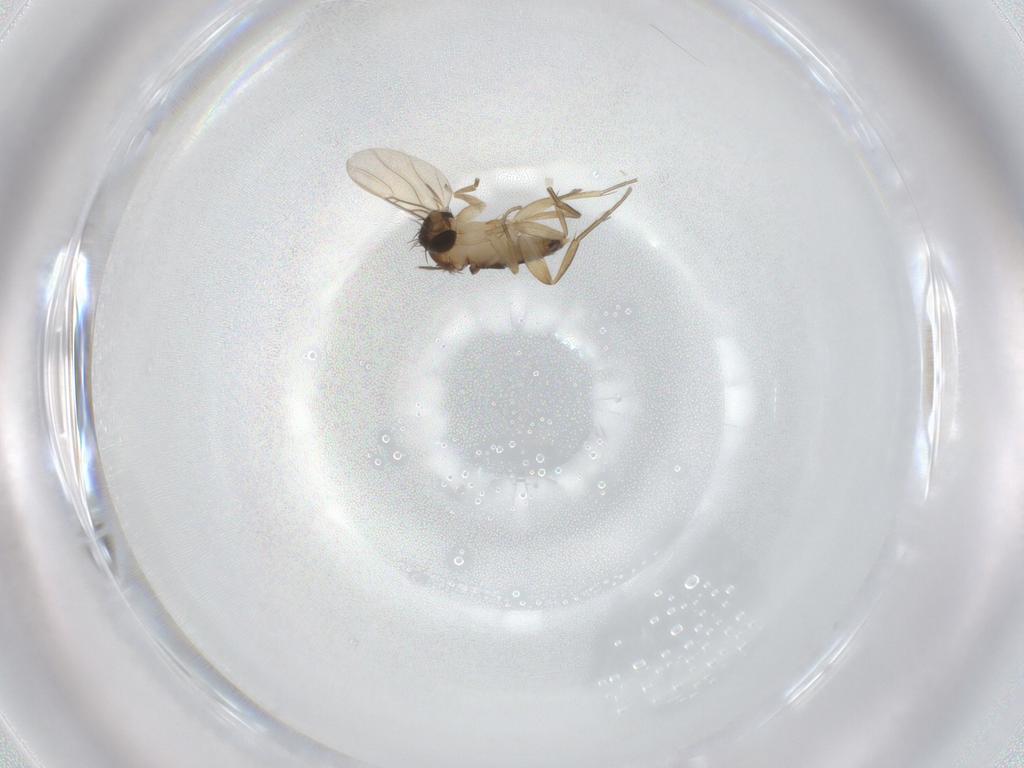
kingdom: Animalia
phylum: Arthropoda
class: Insecta
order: Diptera
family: Phoridae
